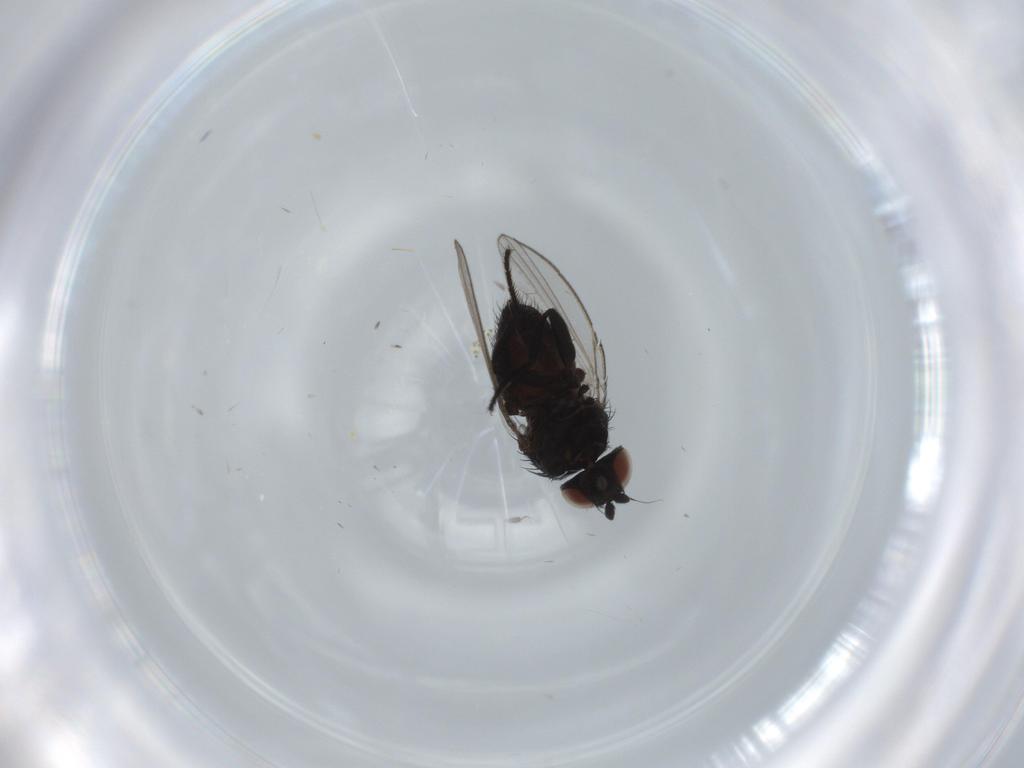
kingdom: Animalia
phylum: Arthropoda
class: Insecta
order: Diptera
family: Psychodidae
